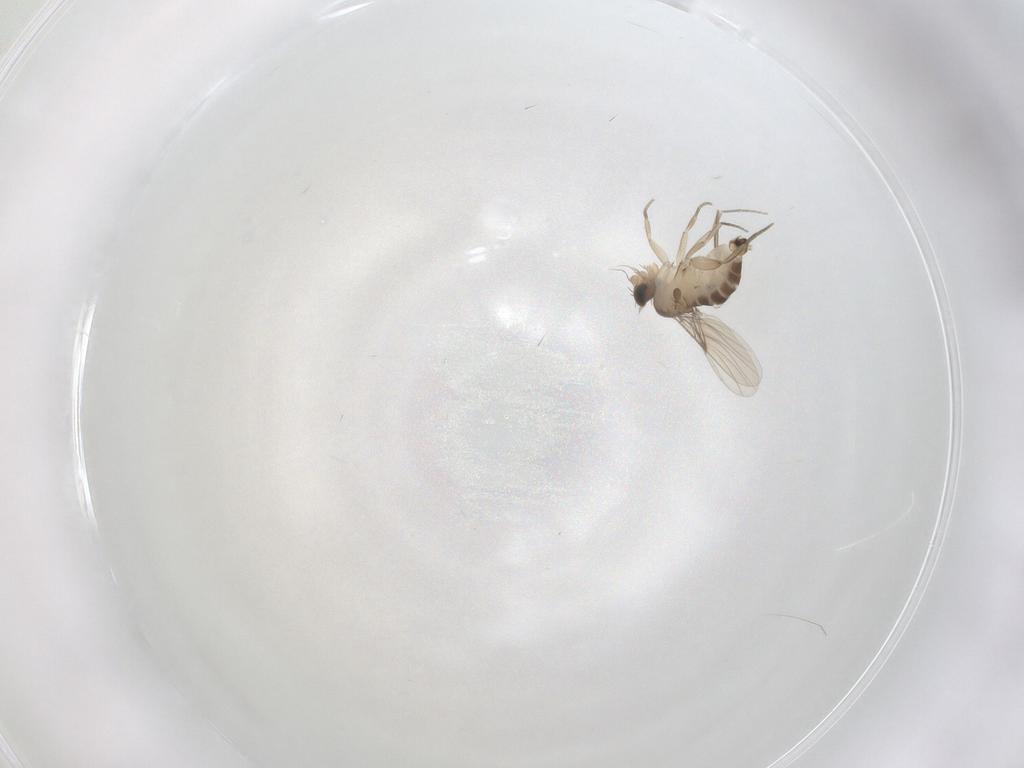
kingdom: Animalia
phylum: Arthropoda
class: Insecta
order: Diptera
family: Phoridae
